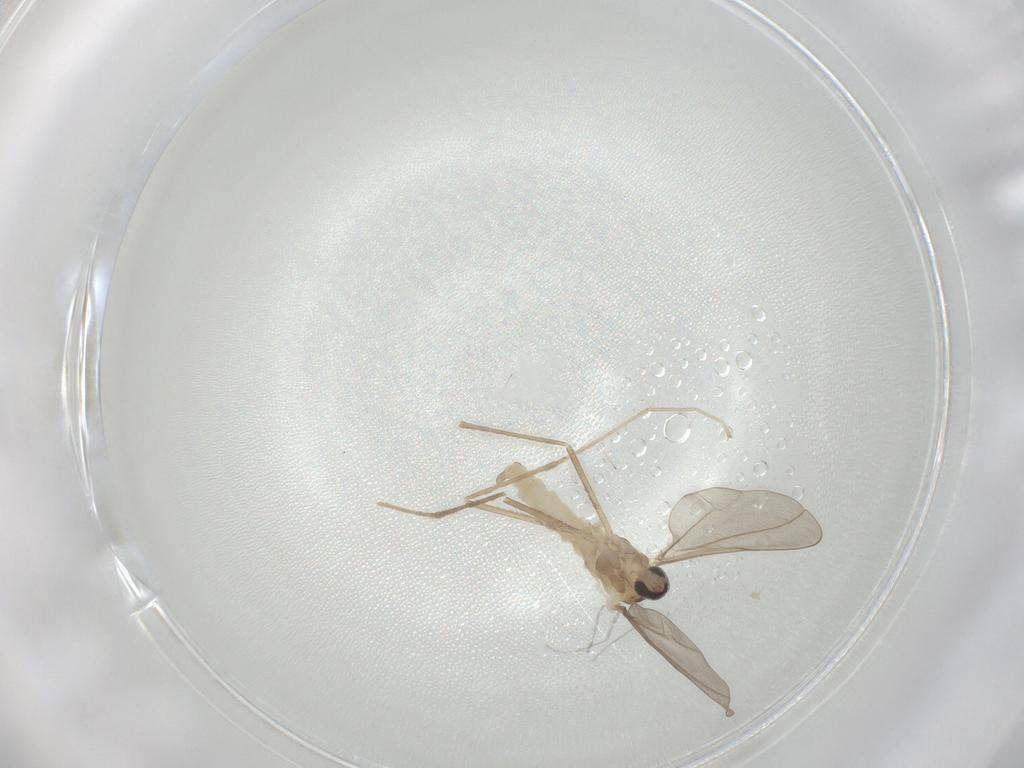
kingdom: Animalia
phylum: Arthropoda
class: Insecta
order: Diptera
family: Cecidomyiidae
